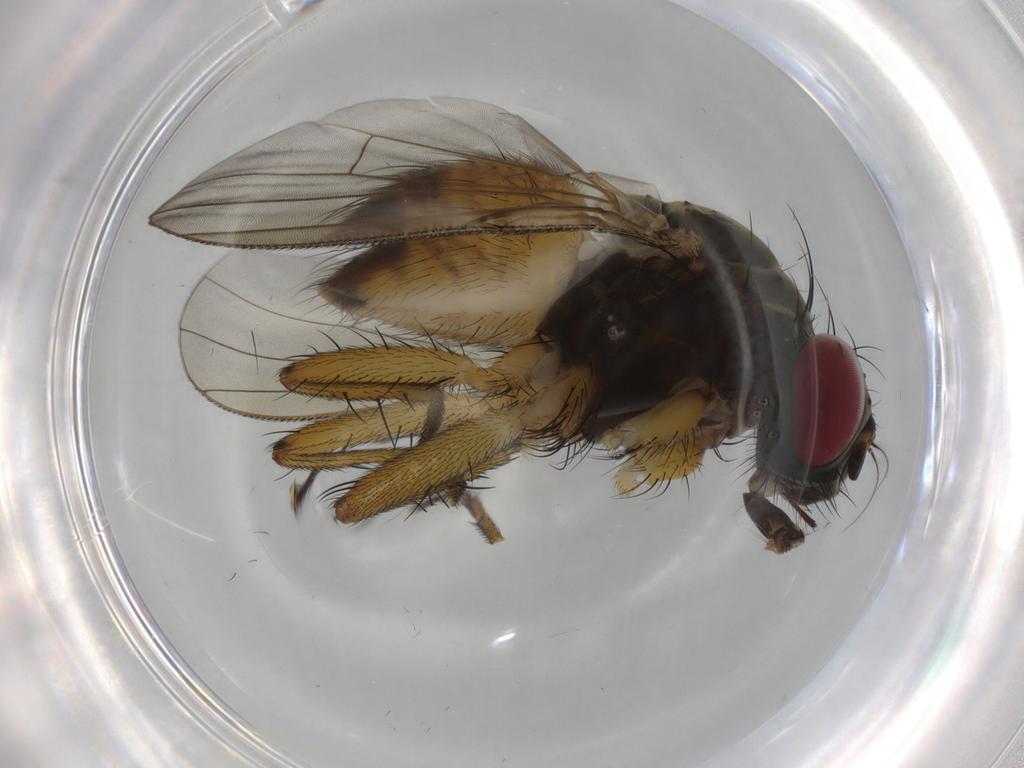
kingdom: Animalia
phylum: Arthropoda
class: Insecta
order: Diptera
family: Muscidae
